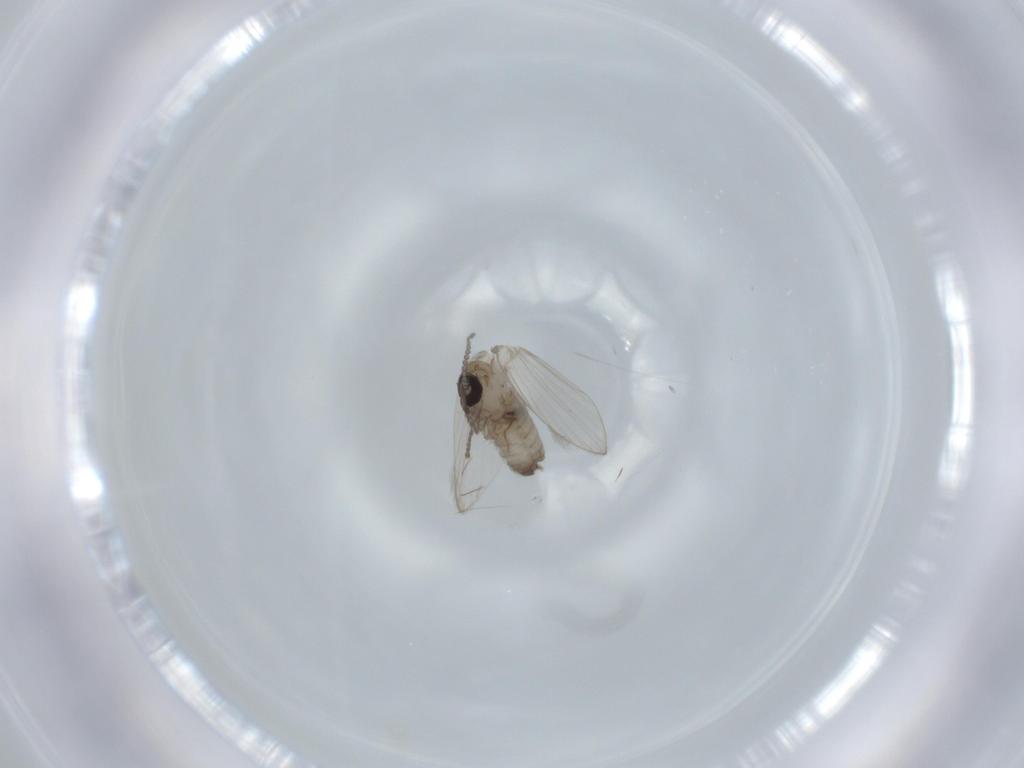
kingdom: Animalia
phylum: Arthropoda
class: Insecta
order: Diptera
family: Psychodidae
